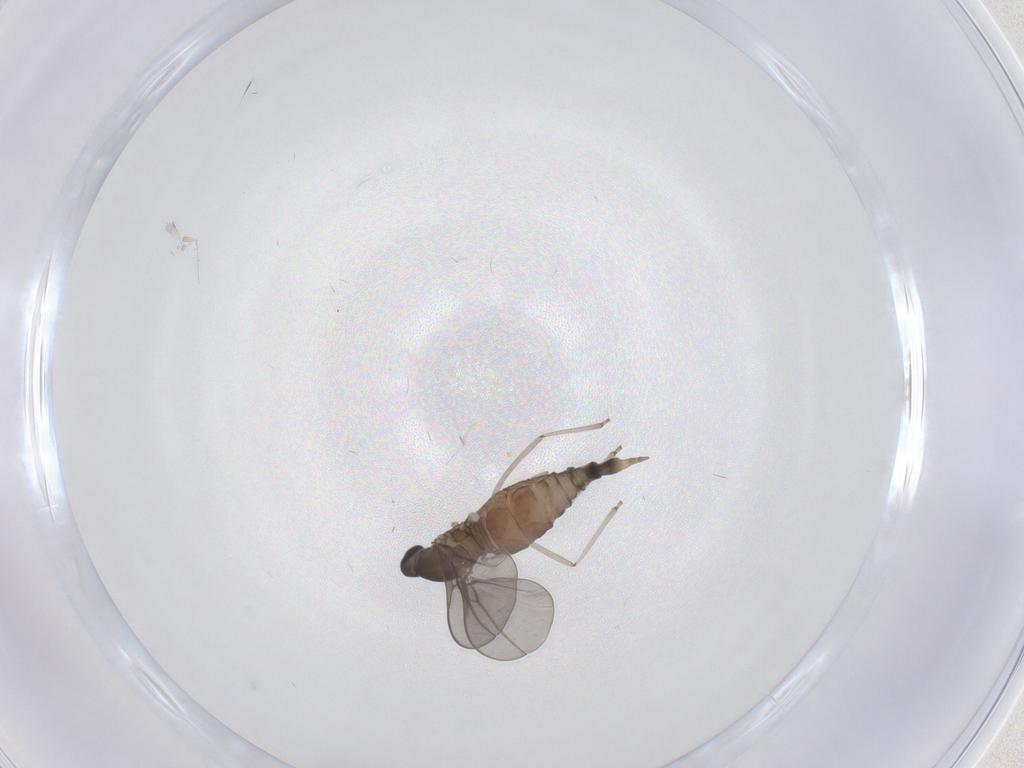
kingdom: Animalia
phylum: Arthropoda
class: Insecta
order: Diptera
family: Cecidomyiidae
